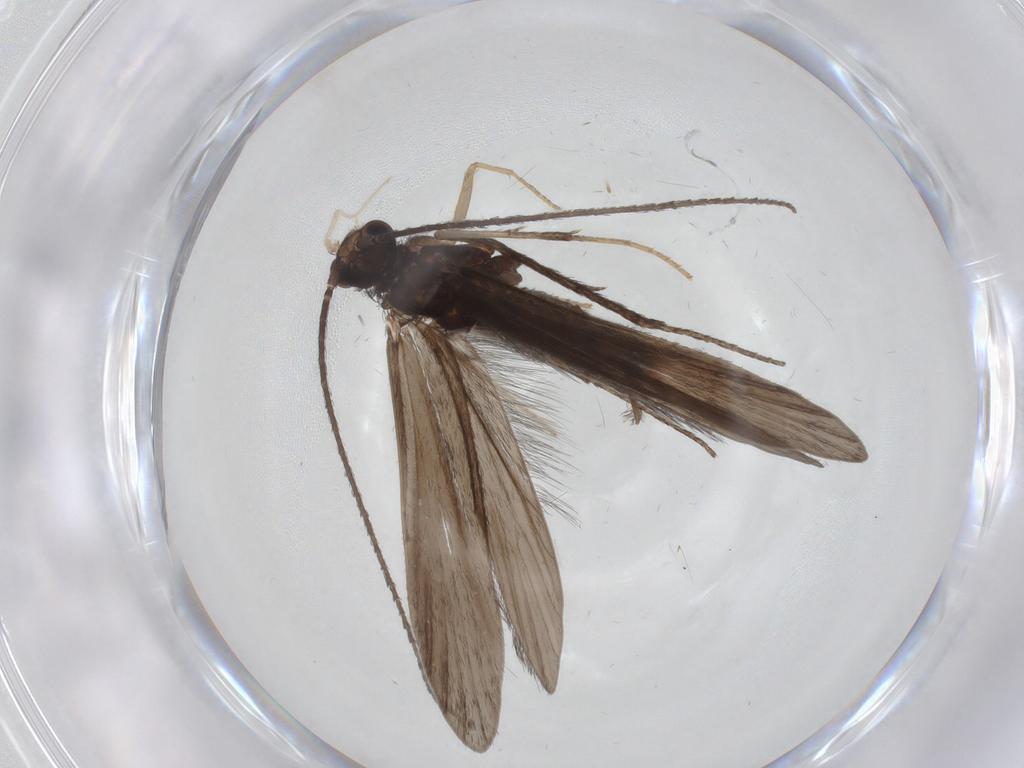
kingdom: Animalia
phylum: Arthropoda
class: Insecta
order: Trichoptera
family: Xiphocentronidae
